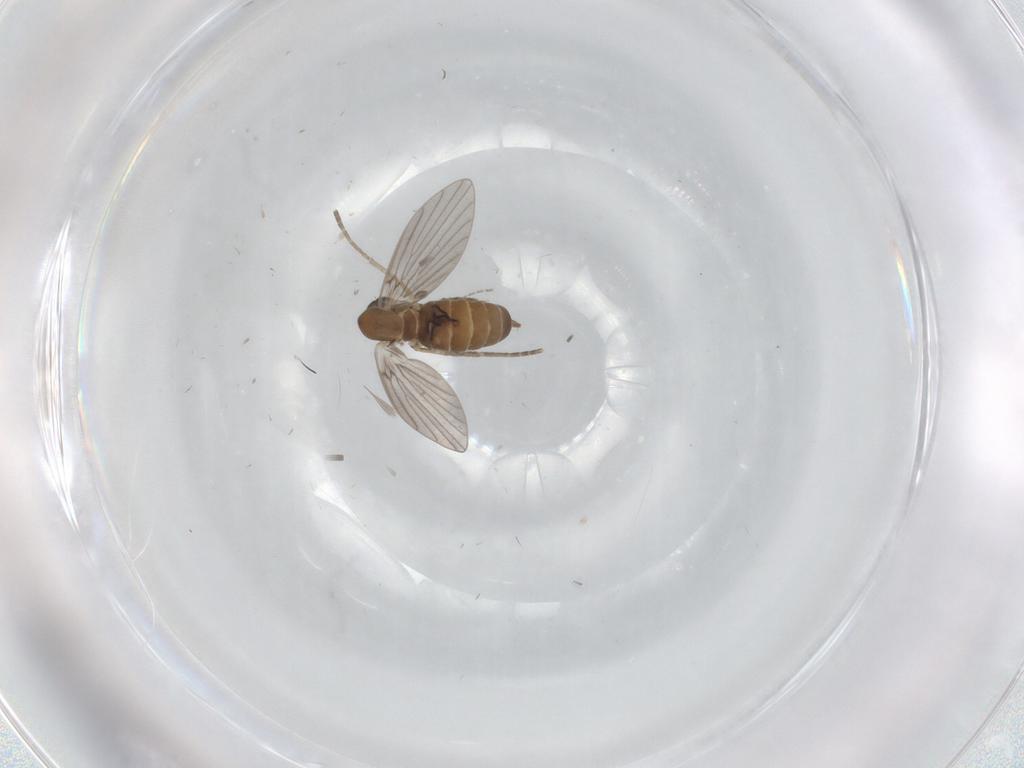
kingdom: Animalia
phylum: Arthropoda
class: Insecta
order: Diptera
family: Chironomidae
